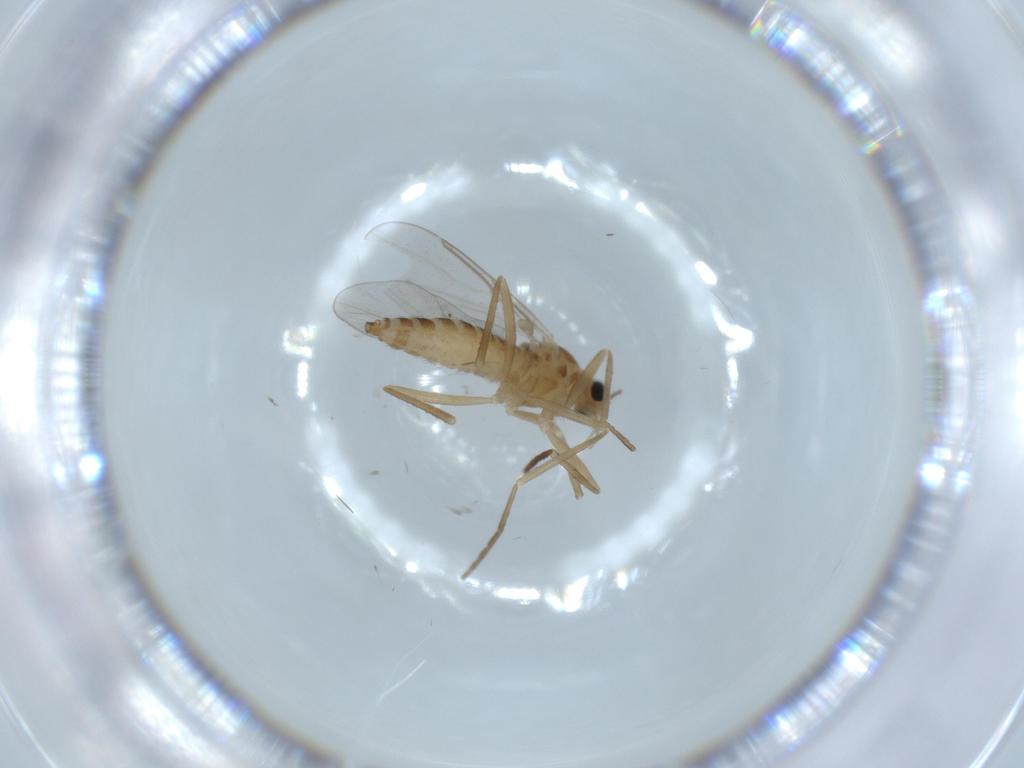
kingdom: Animalia
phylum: Arthropoda
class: Insecta
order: Diptera
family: Cecidomyiidae
